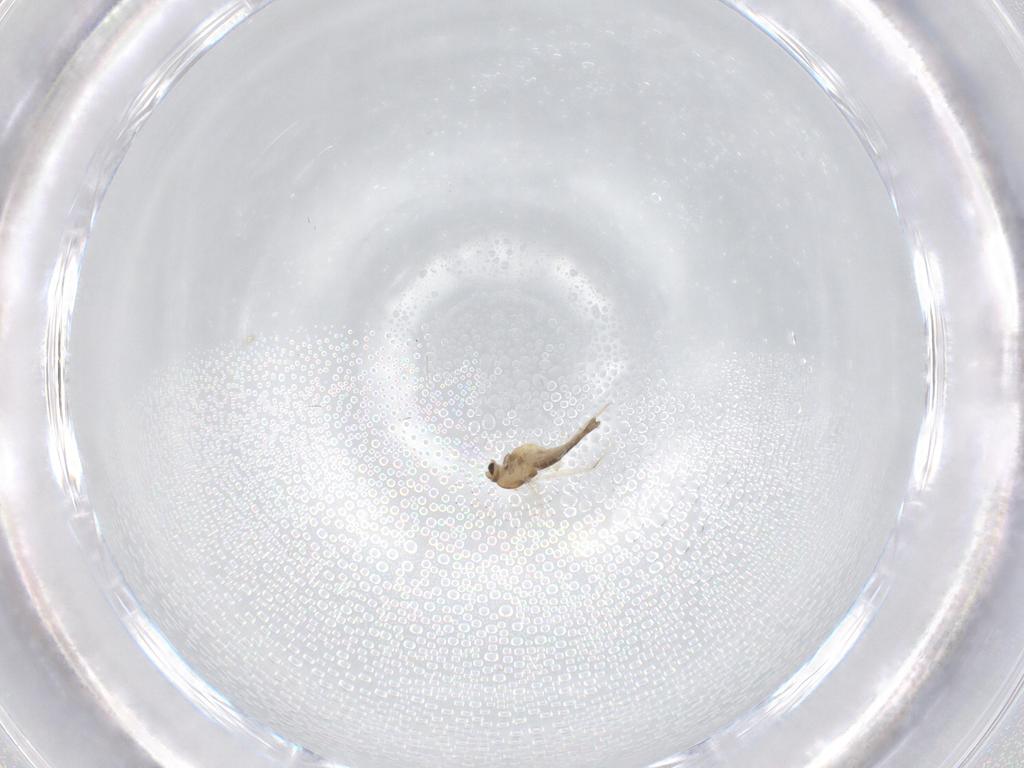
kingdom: Animalia
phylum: Arthropoda
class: Insecta
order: Diptera
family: Chironomidae
